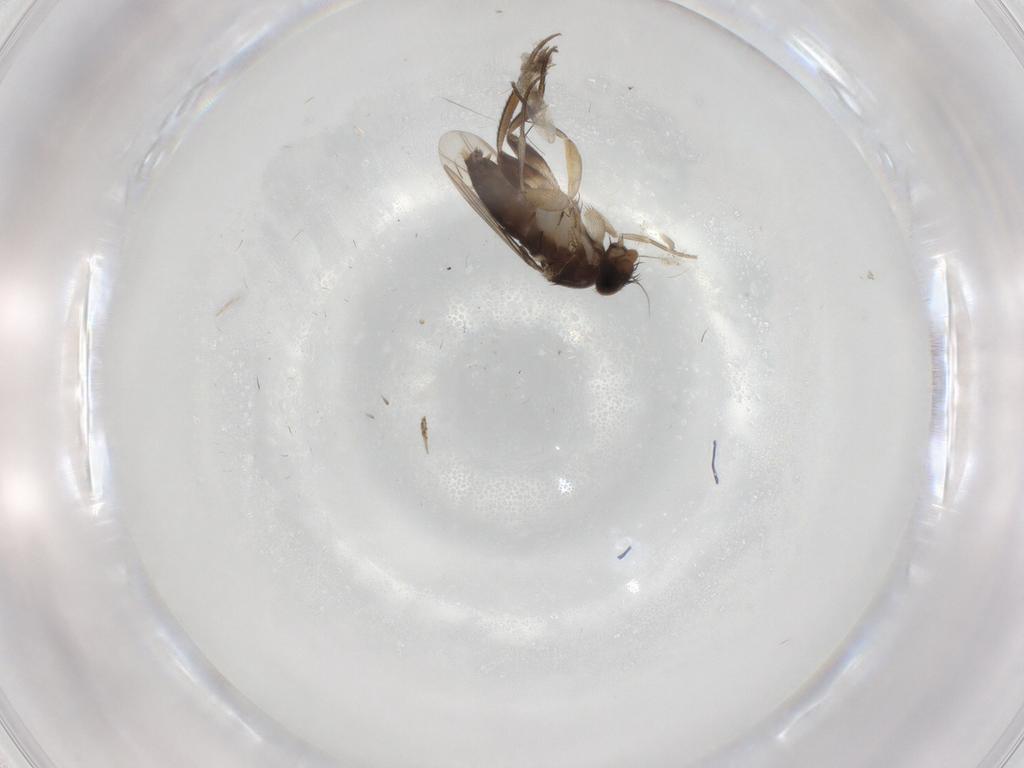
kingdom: Animalia
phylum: Arthropoda
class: Insecta
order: Diptera
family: Phoridae
